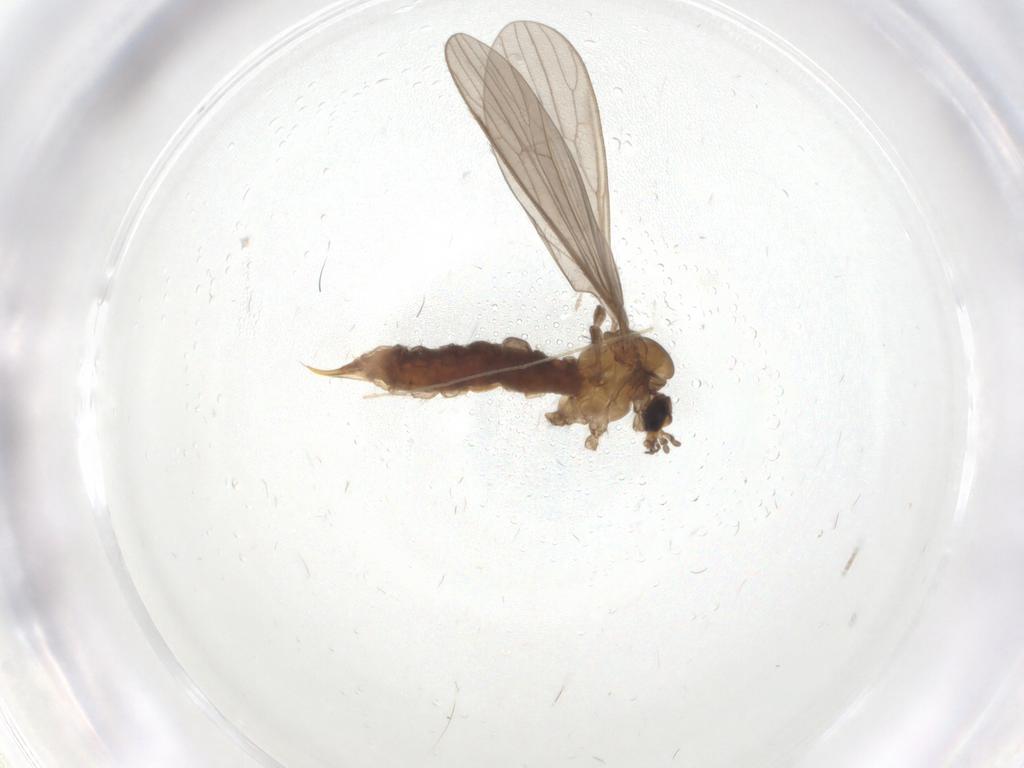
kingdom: Animalia
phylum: Arthropoda
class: Insecta
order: Diptera
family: Limoniidae
